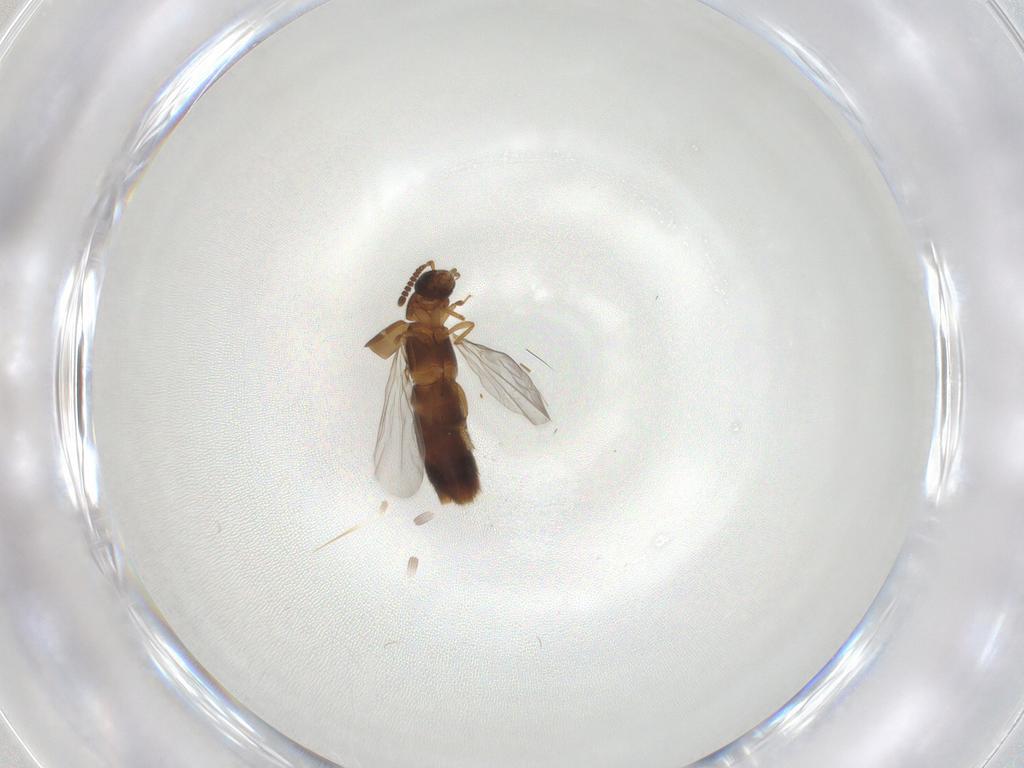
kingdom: Animalia
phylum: Arthropoda
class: Insecta
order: Coleoptera
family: Staphylinidae
